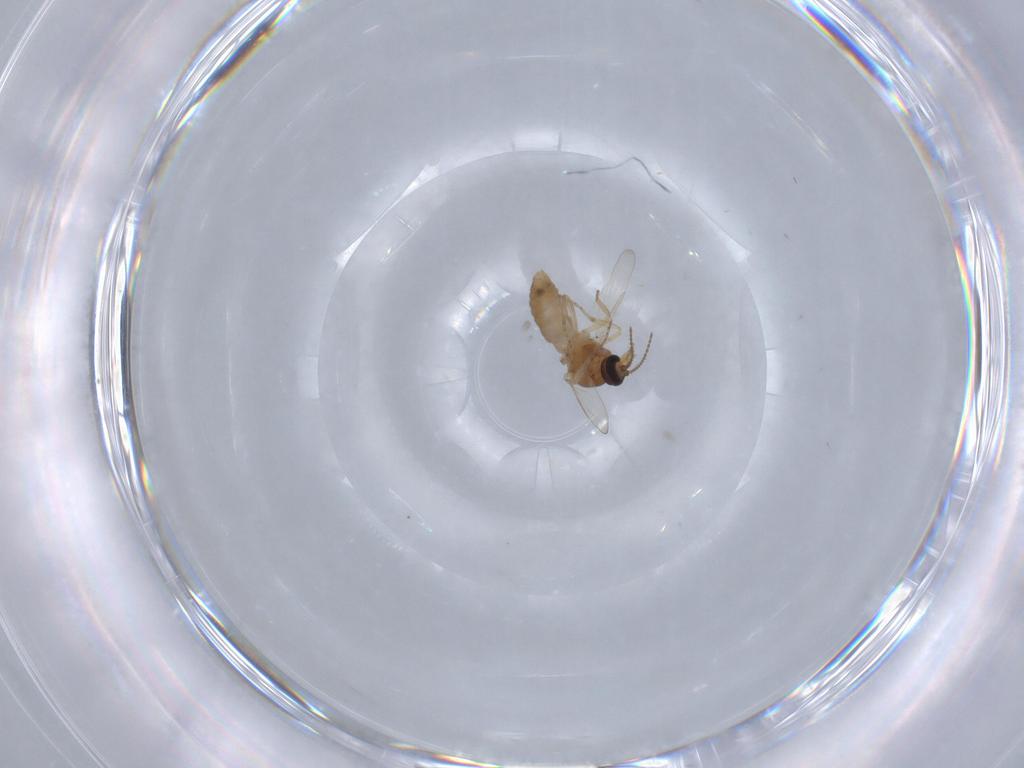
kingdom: Animalia
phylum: Arthropoda
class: Insecta
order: Diptera
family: Ceratopogonidae
